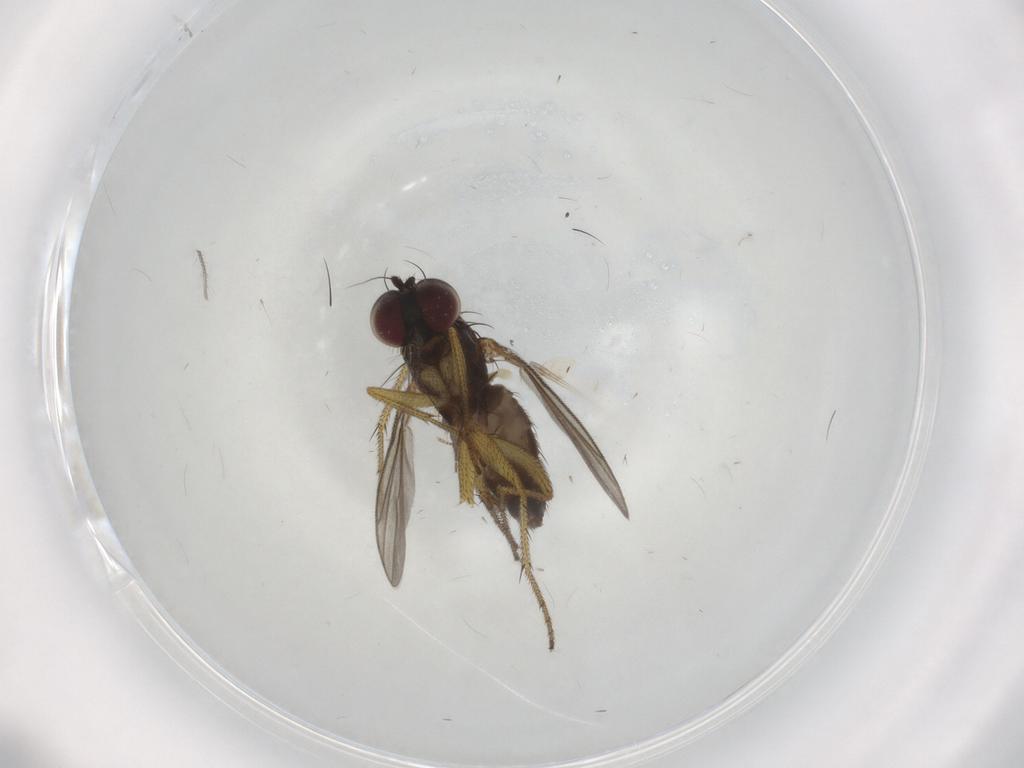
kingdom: Animalia
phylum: Arthropoda
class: Insecta
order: Diptera
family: Chironomidae
